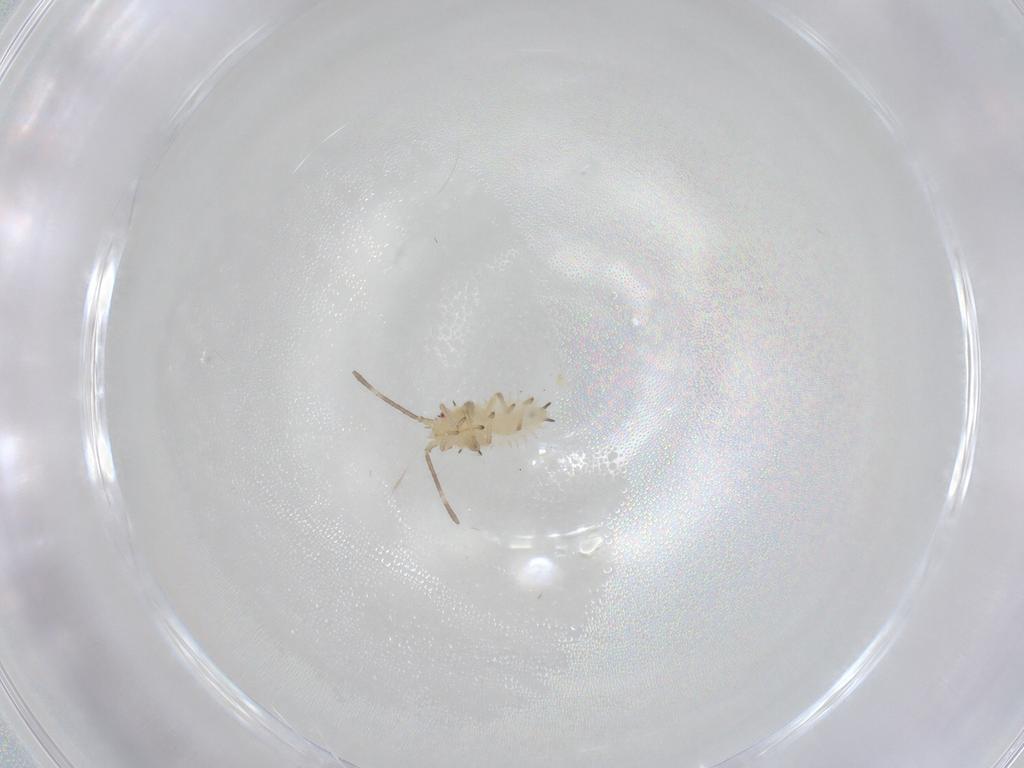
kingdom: Animalia
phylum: Arthropoda
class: Insecta
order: Hemiptera
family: Tingidae
